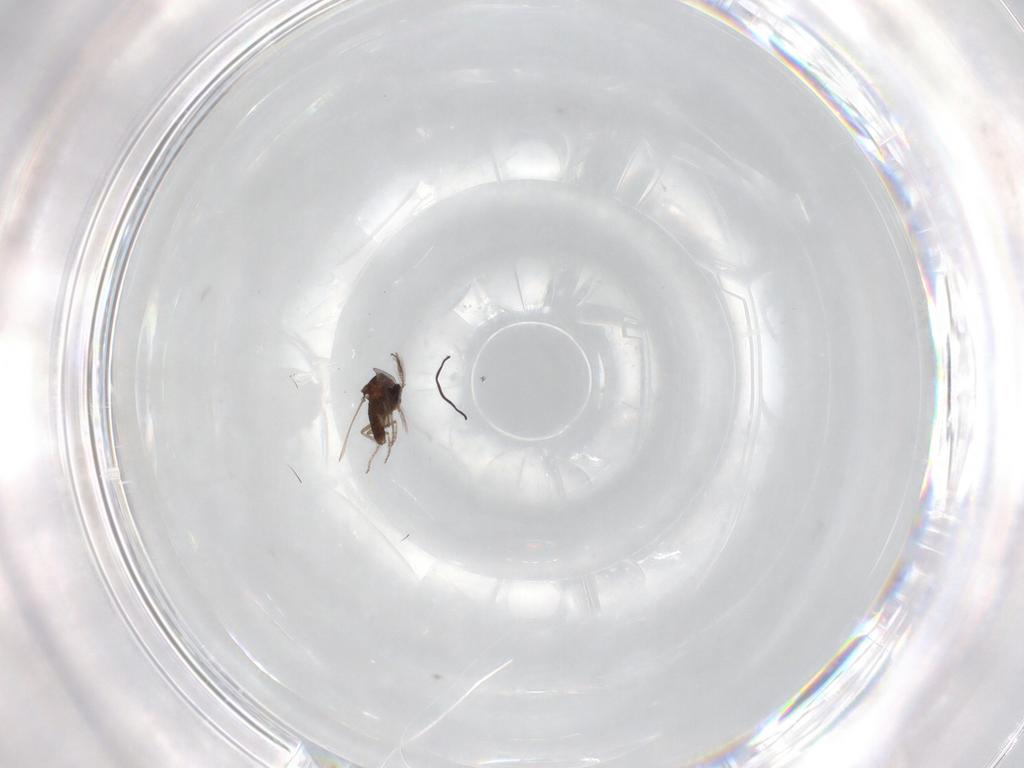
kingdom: Animalia
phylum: Arthropoda
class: Insecta
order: Diptera
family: Ceratopogonidae
